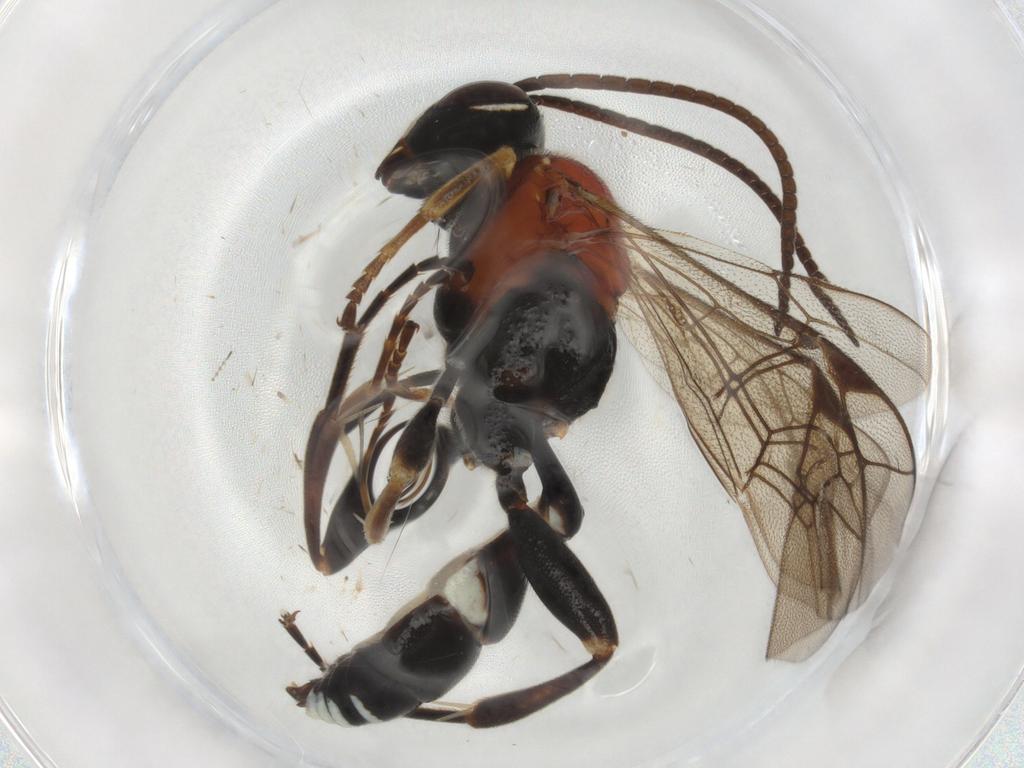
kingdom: Animalia
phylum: Arthropoda
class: Insecta
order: Hymenoptera
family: Ichneumonidae
